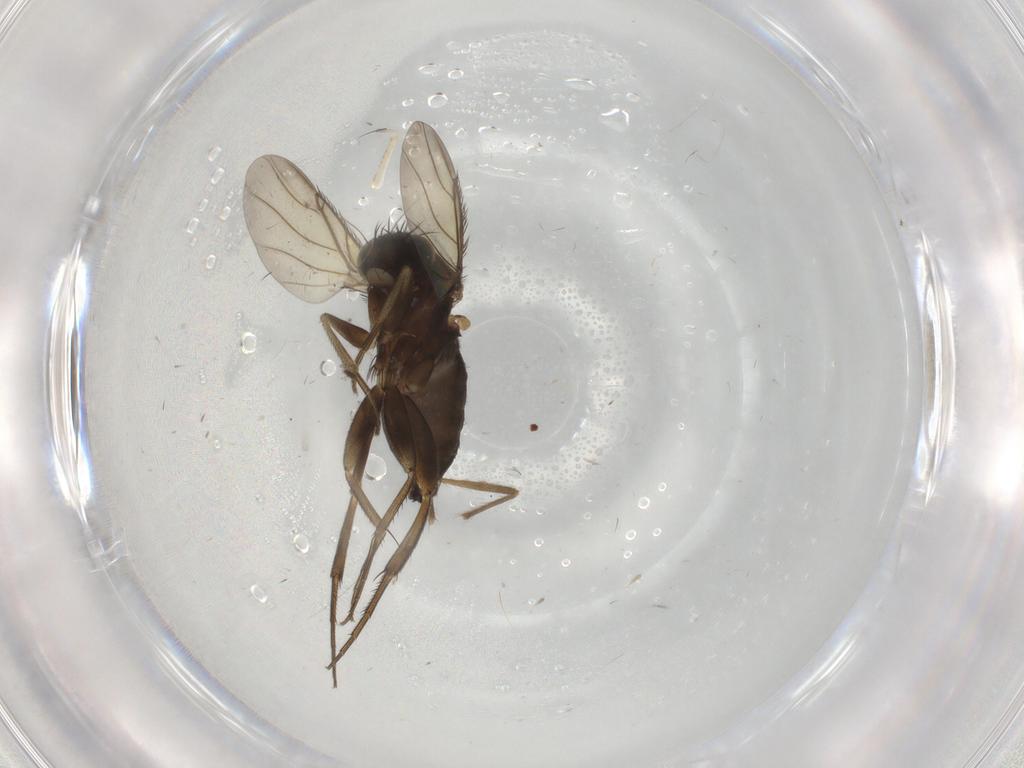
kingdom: Animalia
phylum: Arthropoda
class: Insecta
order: Diptera
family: Phoridae
